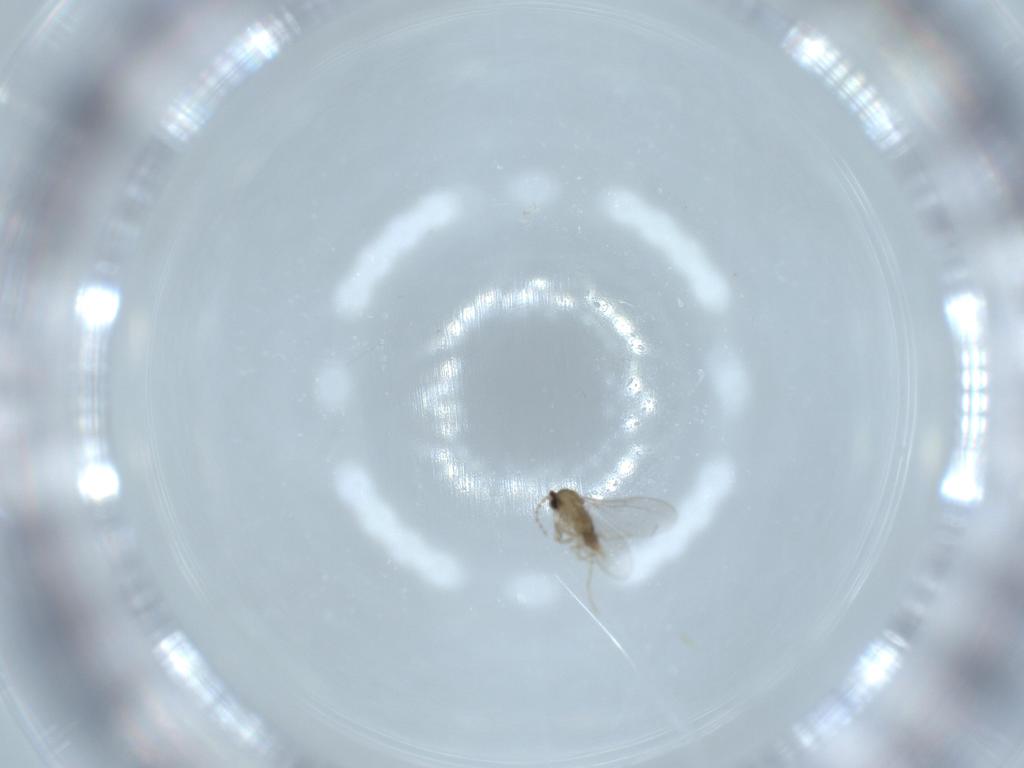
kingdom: Animalia
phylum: Arthropoda
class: Insecta
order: Diptera
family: Cecidomyiidae
